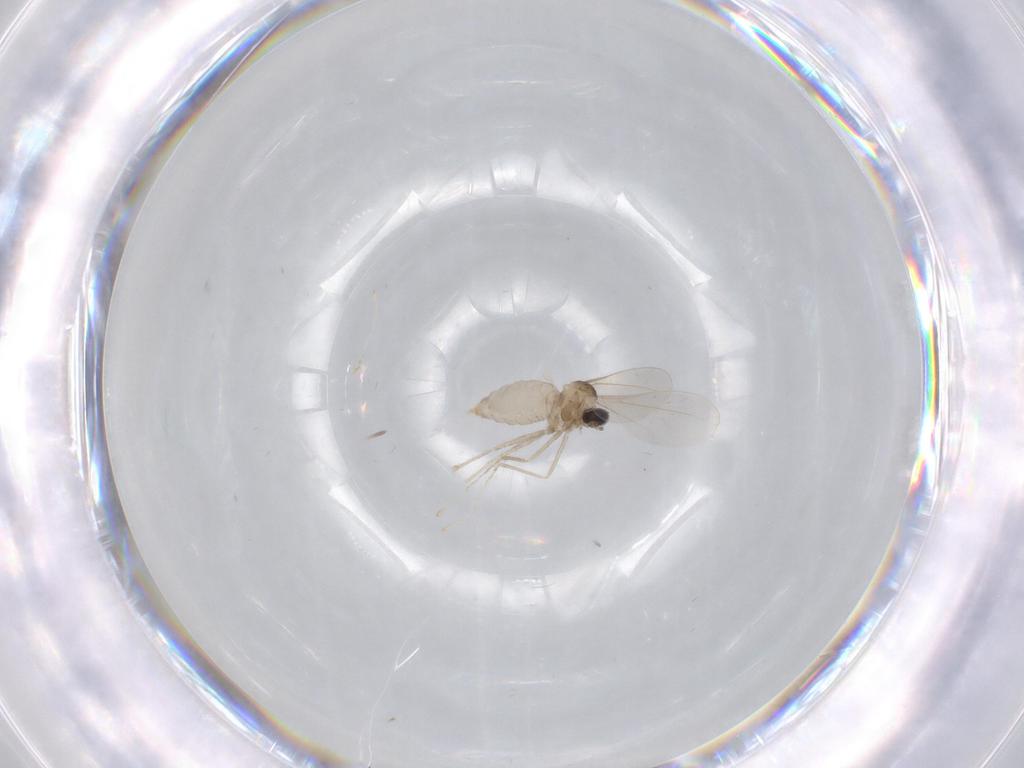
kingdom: Animalia
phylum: Arthropoda
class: Insecta
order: Diptera
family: Cecidomyiidae
